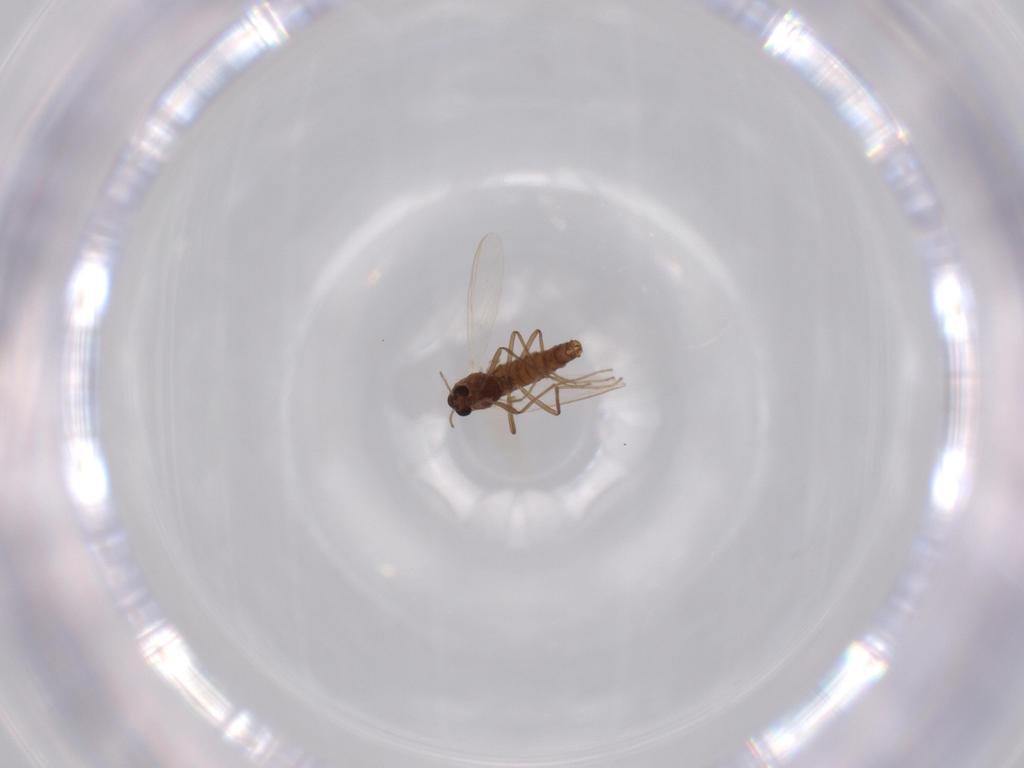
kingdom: Animalia
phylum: Arthropoda
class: Insecta
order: Diptera
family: Chironomidae
